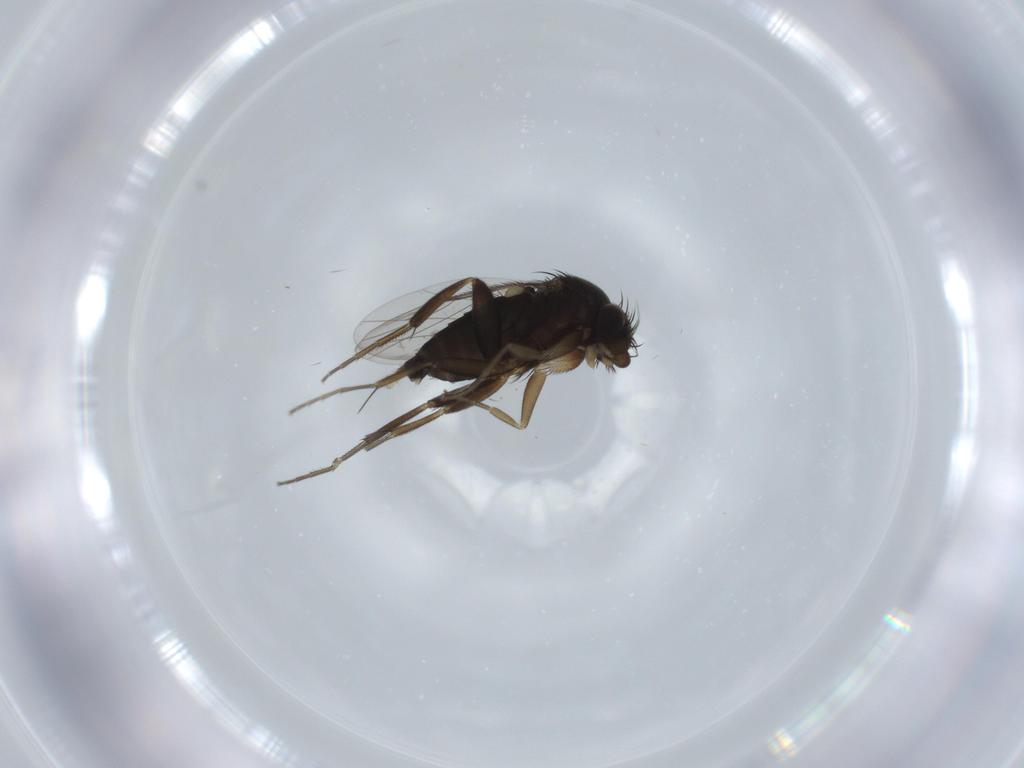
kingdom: Animalia
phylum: Arthropoda
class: Insecta
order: Diptera
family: Phoridae
